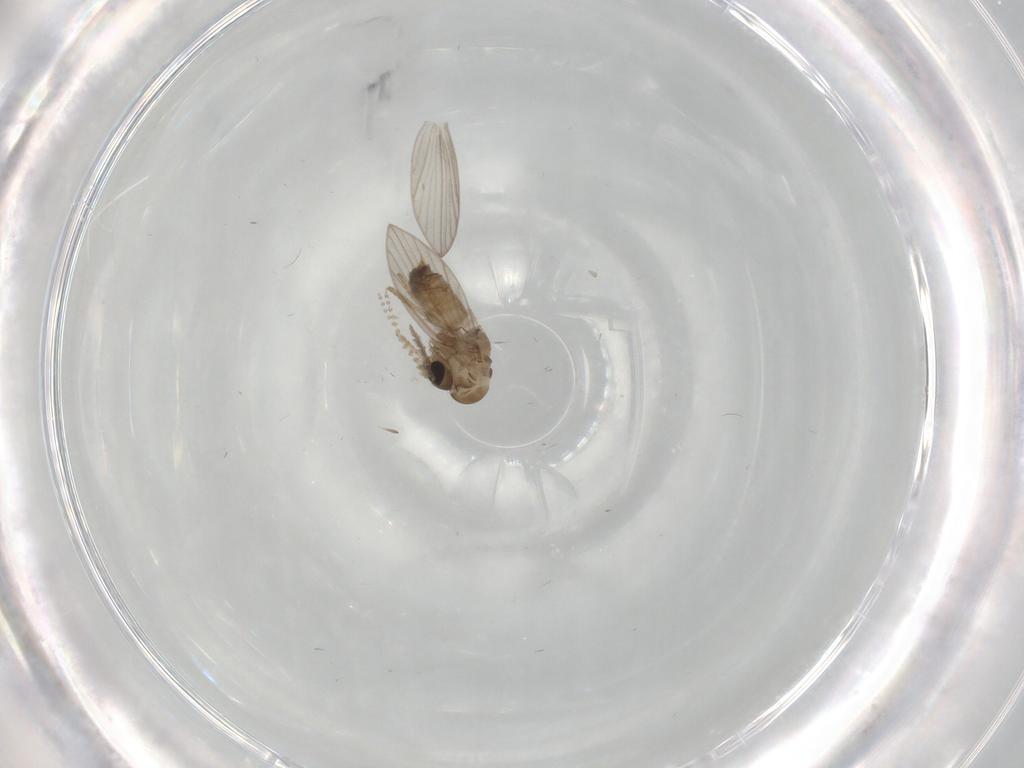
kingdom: Animalia
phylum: Arthropoda
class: Insecta
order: Diptera
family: Psychodidae
